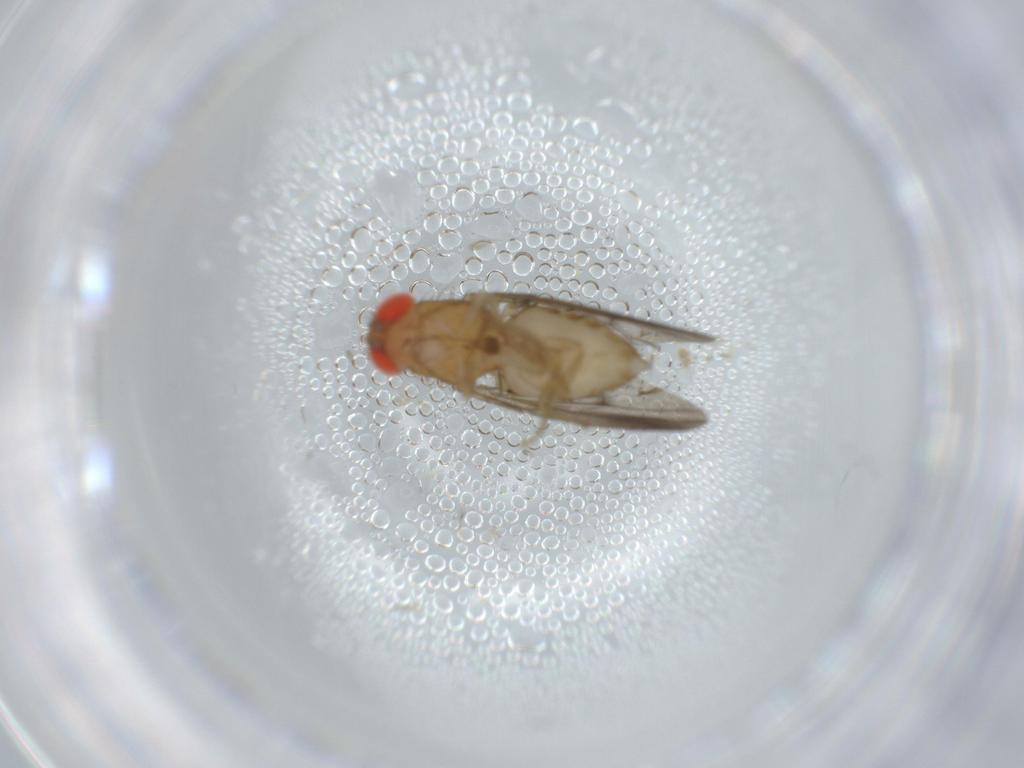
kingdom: Animalia
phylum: Arthropoda
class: Insecta
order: Diptera
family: Drosophilidae
